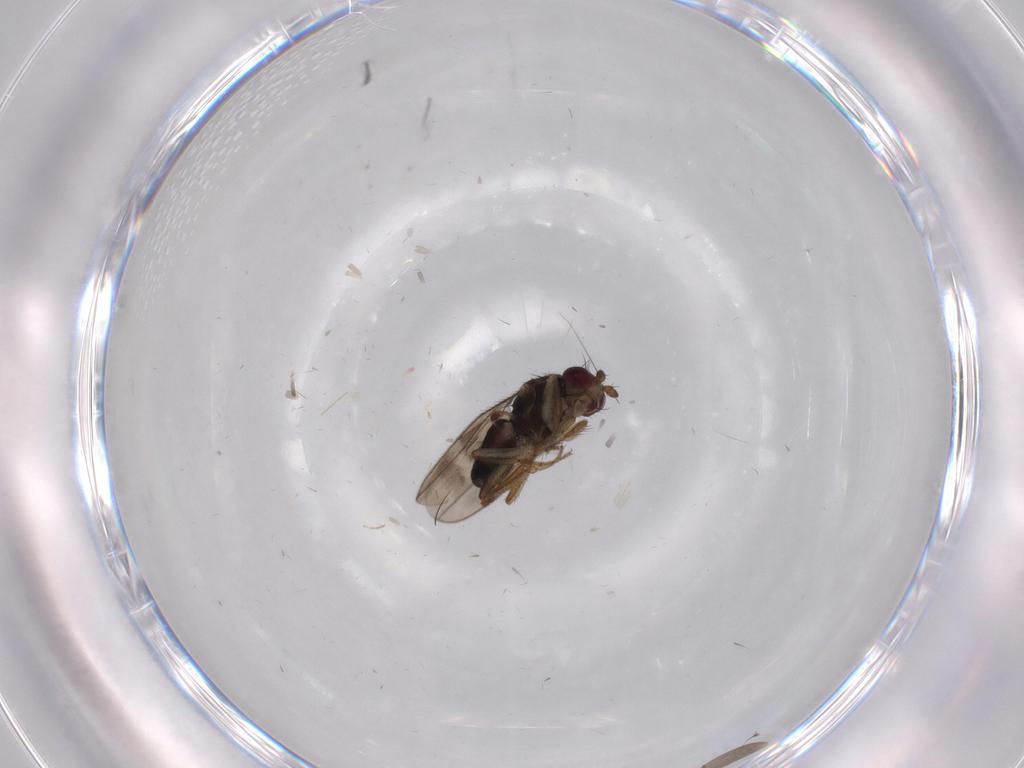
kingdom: Animalia
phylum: Arthropoda
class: Insecta
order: Diptera
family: Sphaeroceridae
